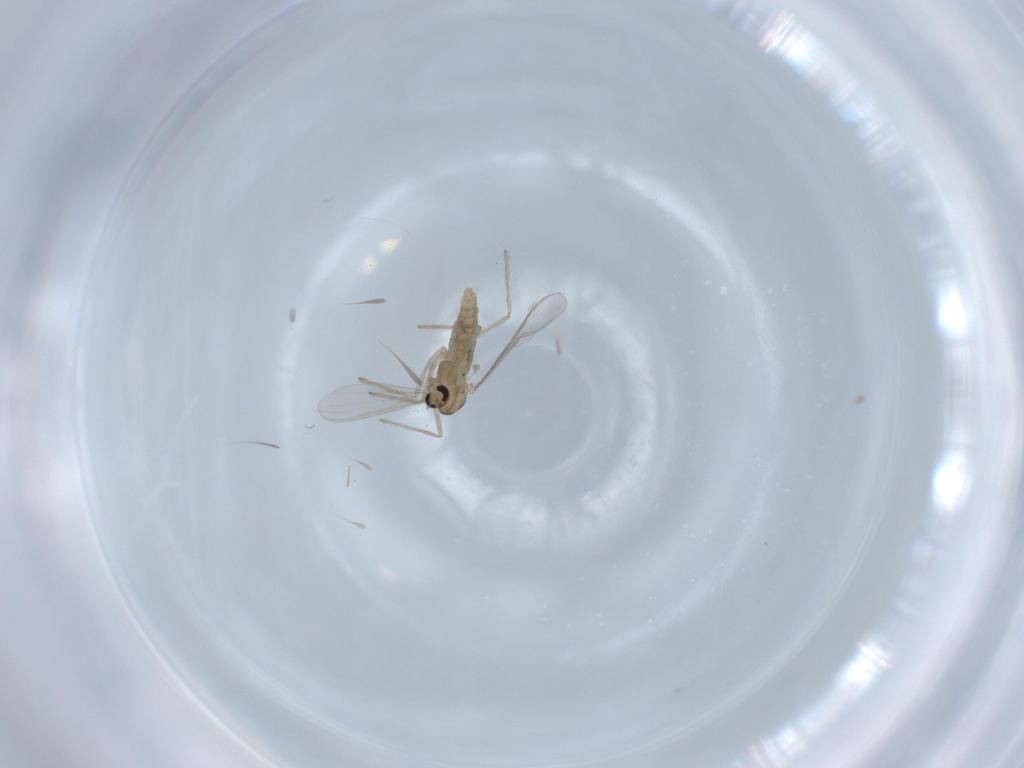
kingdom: Animalia
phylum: Arthropoda
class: Insecta
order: Diptera
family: Chironomidae
